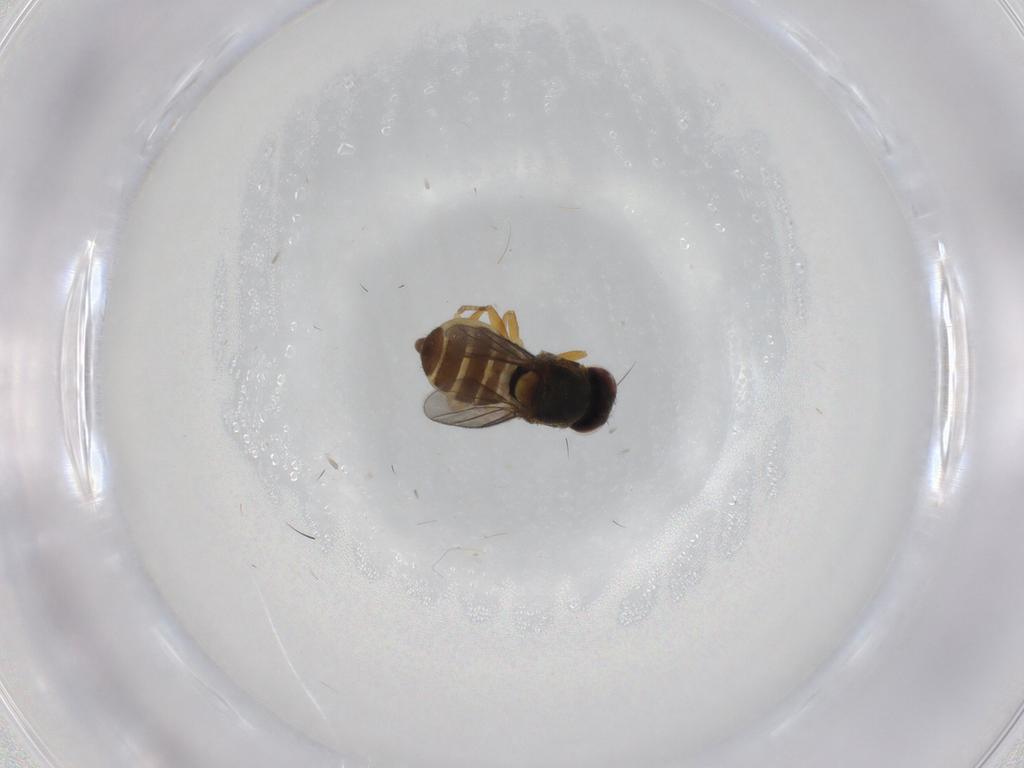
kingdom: Animalia
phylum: Arthropoda
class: Insecta
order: Diptera
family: Chloropidae
